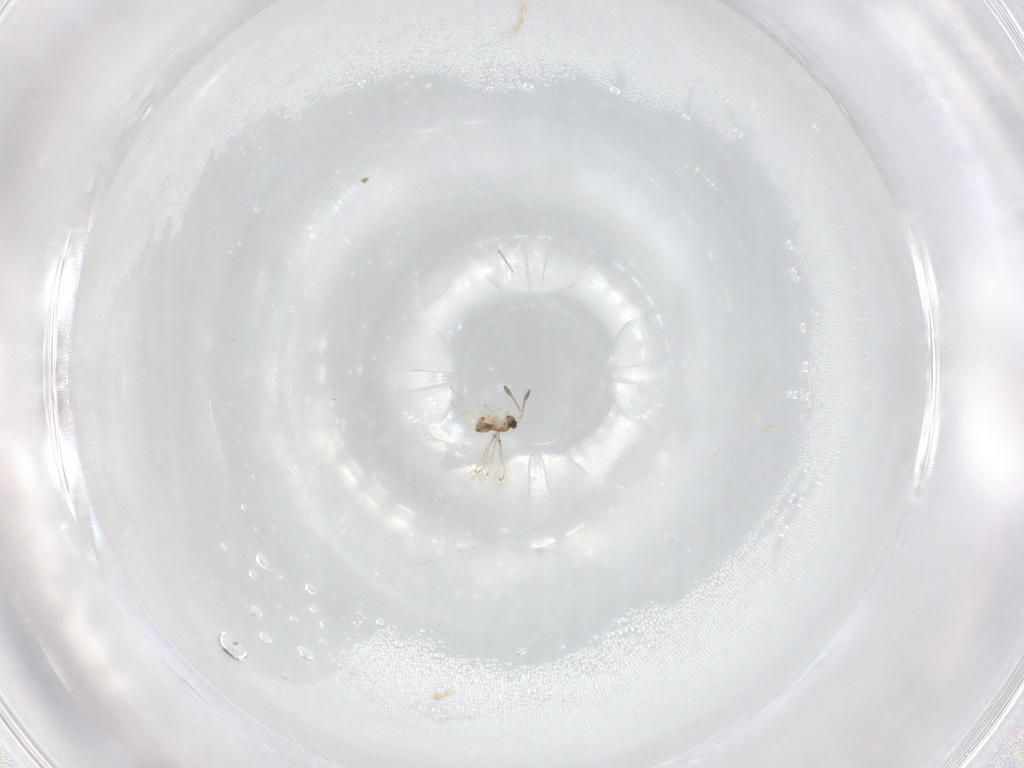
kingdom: Animalia
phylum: Arthropoda
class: Insecta
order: Hymenoptera
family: Mymaridae
